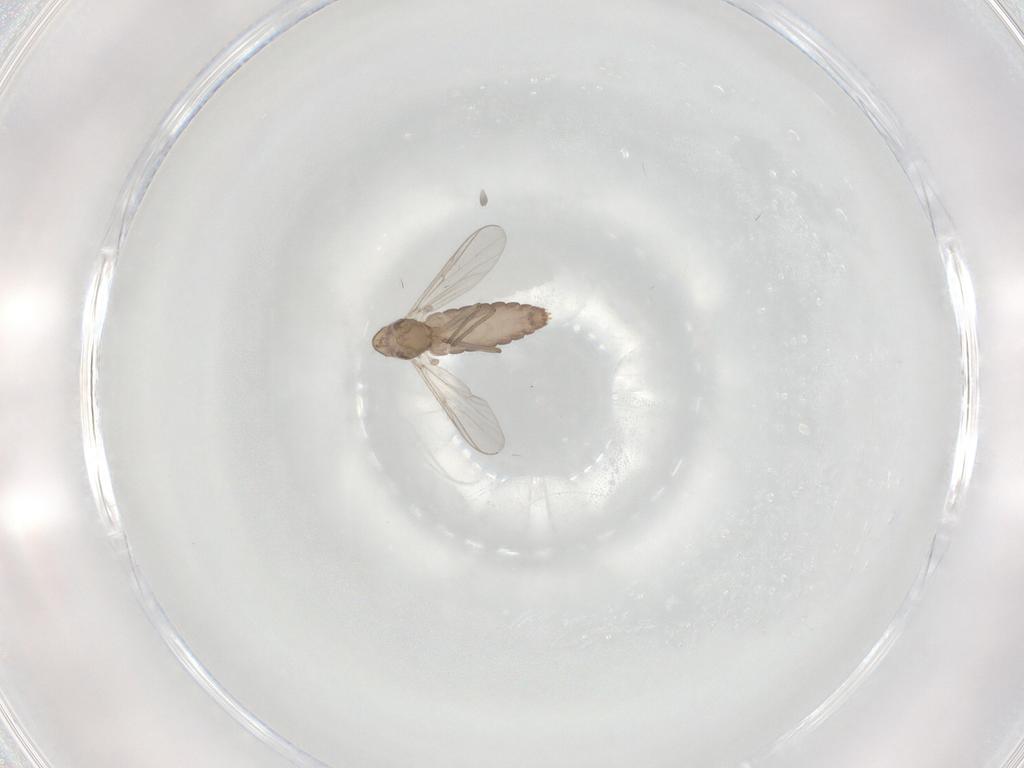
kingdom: Animalia
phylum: Arthropoda
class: Insecta
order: Diptera
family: Chironomidae
